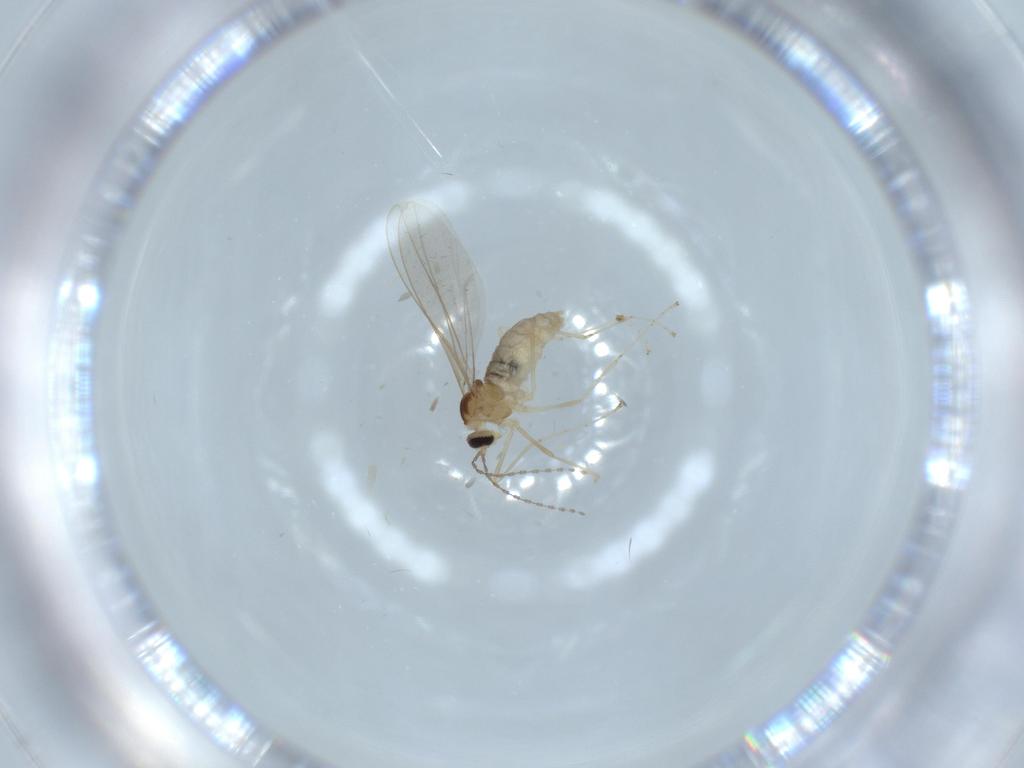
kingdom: Animalia
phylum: Arthropoda
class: Insecta
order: Diptera
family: Cecidomyiidae
